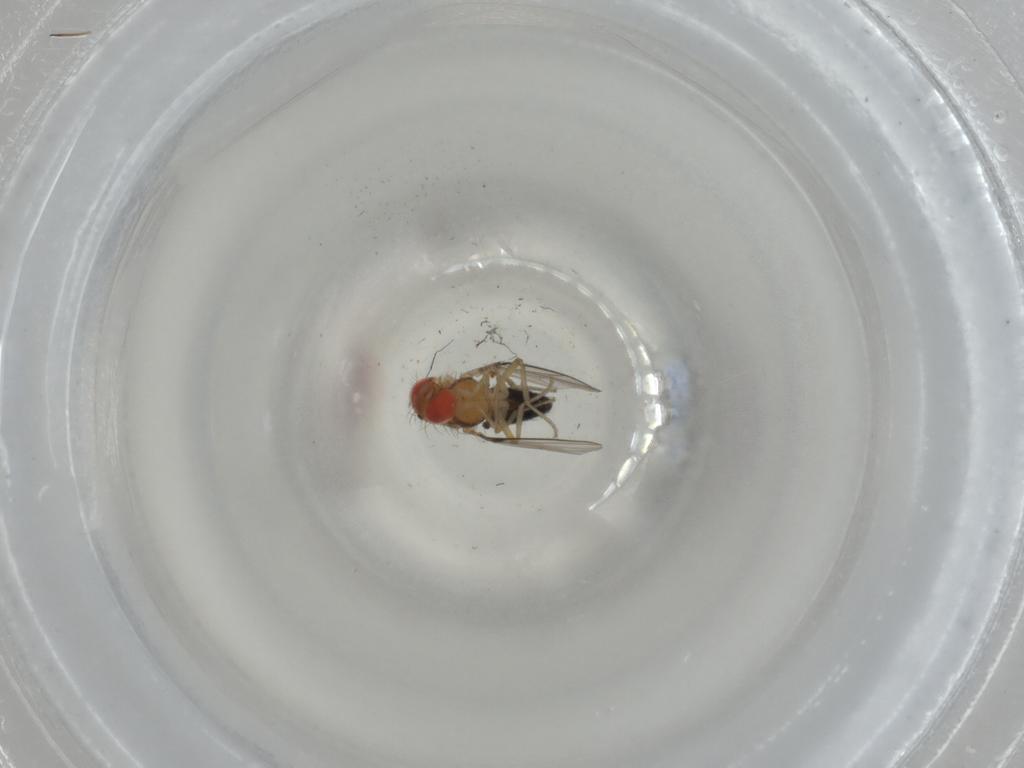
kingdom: Animalia
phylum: Arthropoda
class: Insecta
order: Diptera
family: Drosophilidae
